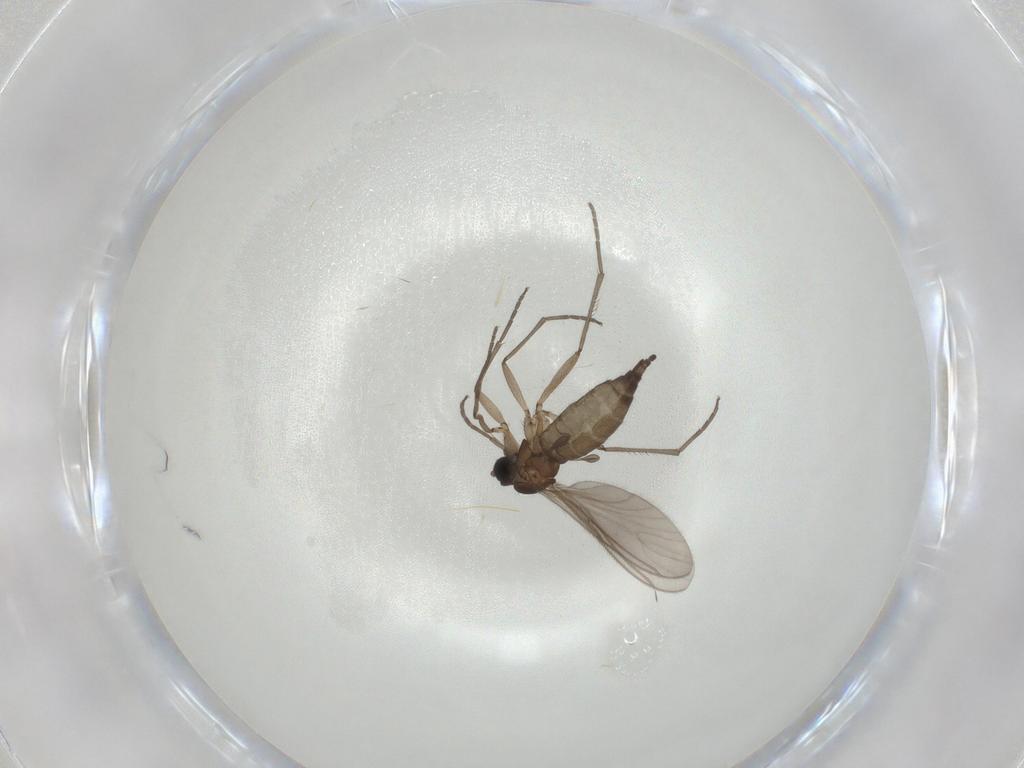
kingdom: Animalia
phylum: Arthropoda
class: Insecta
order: Diptera
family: Sciaridae
